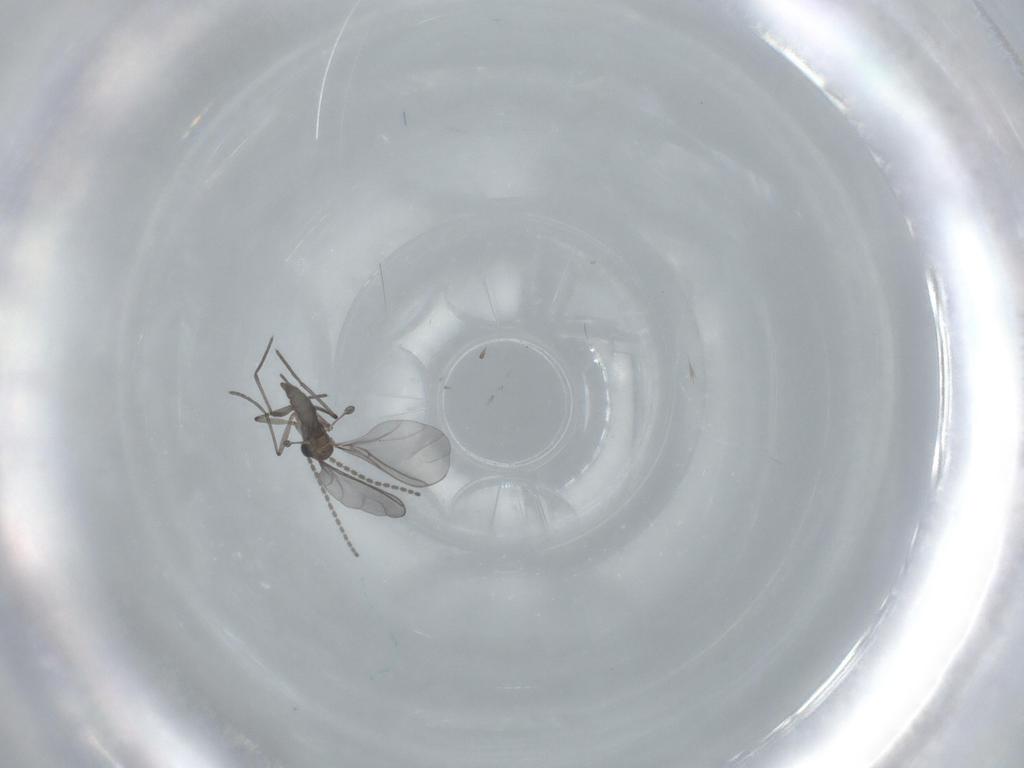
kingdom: Animalia
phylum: Arthropoda
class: Insecta
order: Diptera
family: Sciaridae
